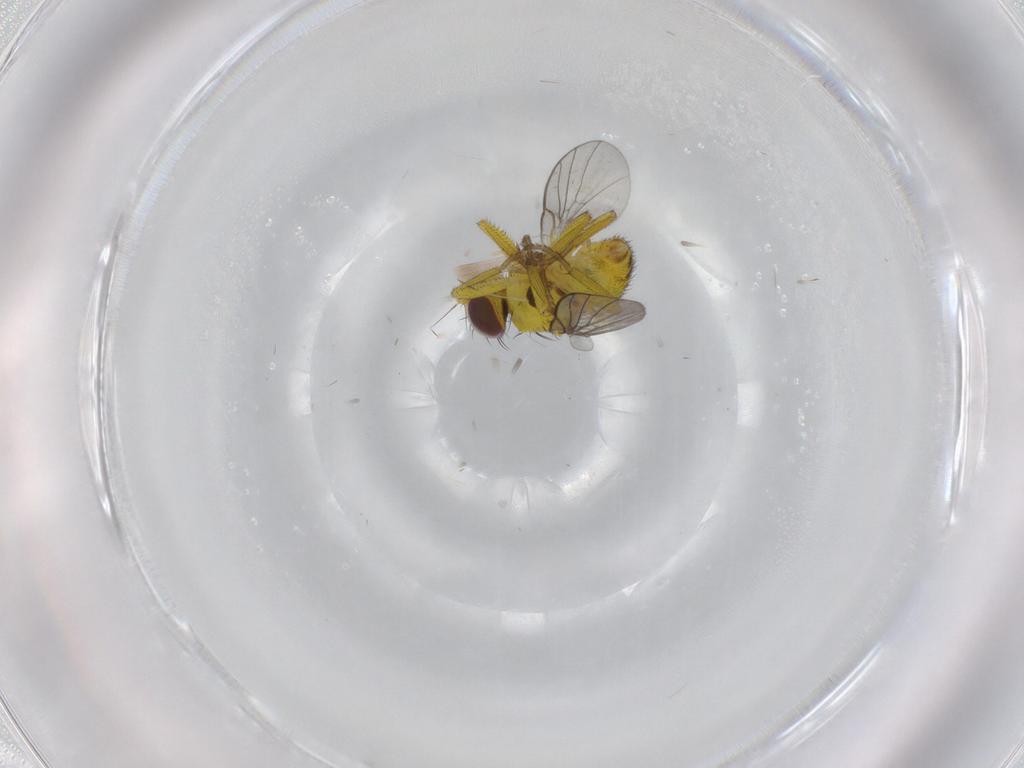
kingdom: Animalia
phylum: Arthropoda
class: Insecta
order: Diptera
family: Agromyzidae
